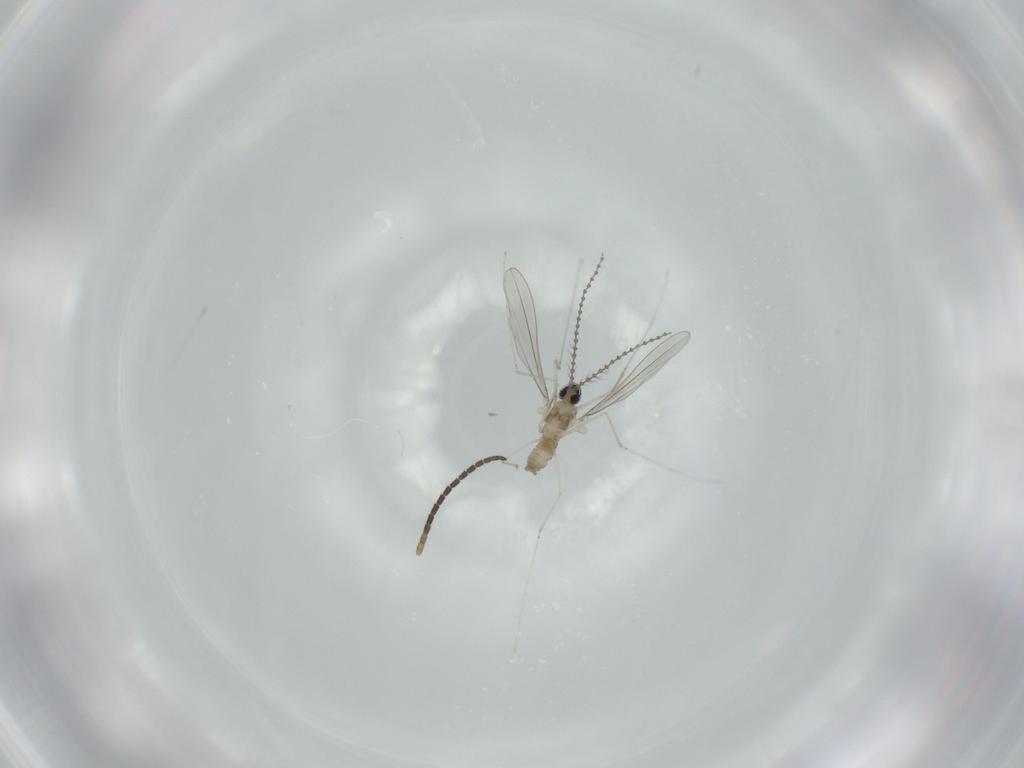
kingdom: Animalia
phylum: Arthropoda
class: Insecta
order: Diptera
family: Sciaridae
